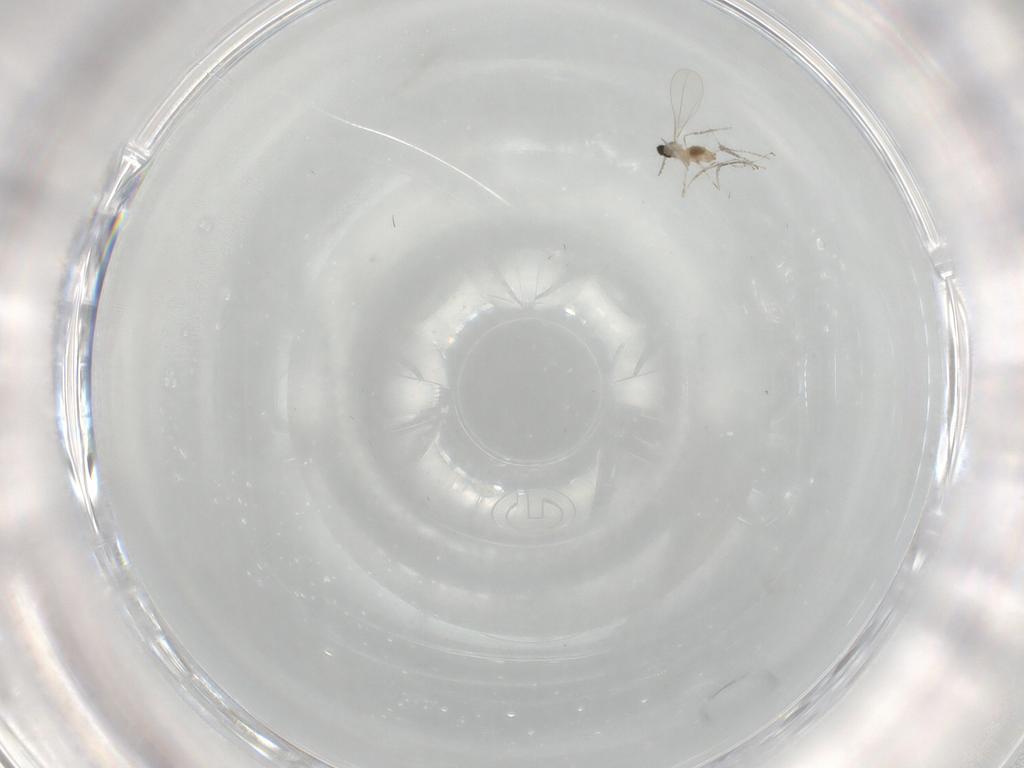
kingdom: Animalia
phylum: Arthropoda
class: Insecta
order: Diptera
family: Cecidomyiidae
